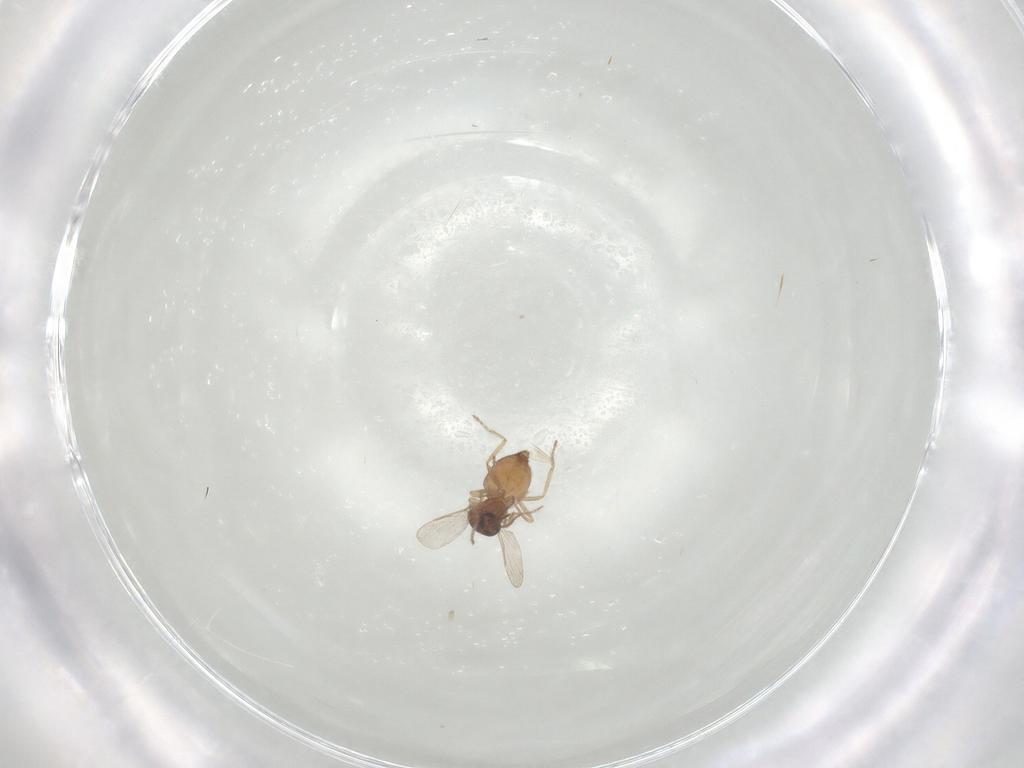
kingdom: Animalia
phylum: Arthropoda
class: Insecta
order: Diptera
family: Ceratopogonidae
